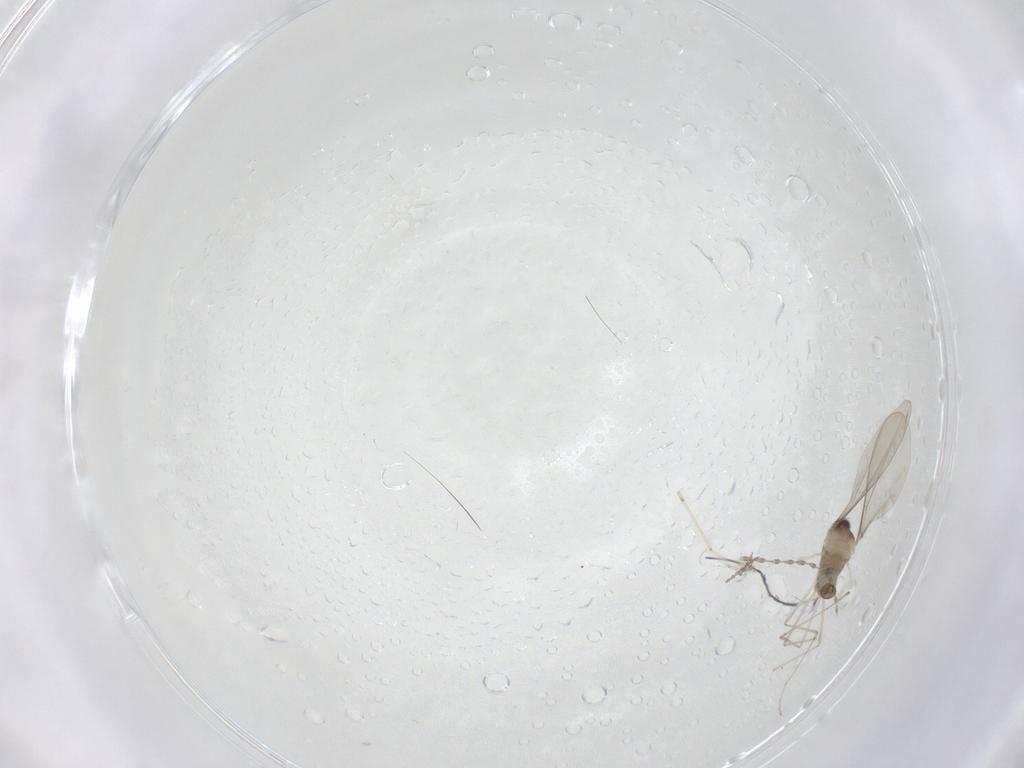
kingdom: Animalia
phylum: Arthropoda
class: Insecta
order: Diptera
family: Cecidomyiidae
